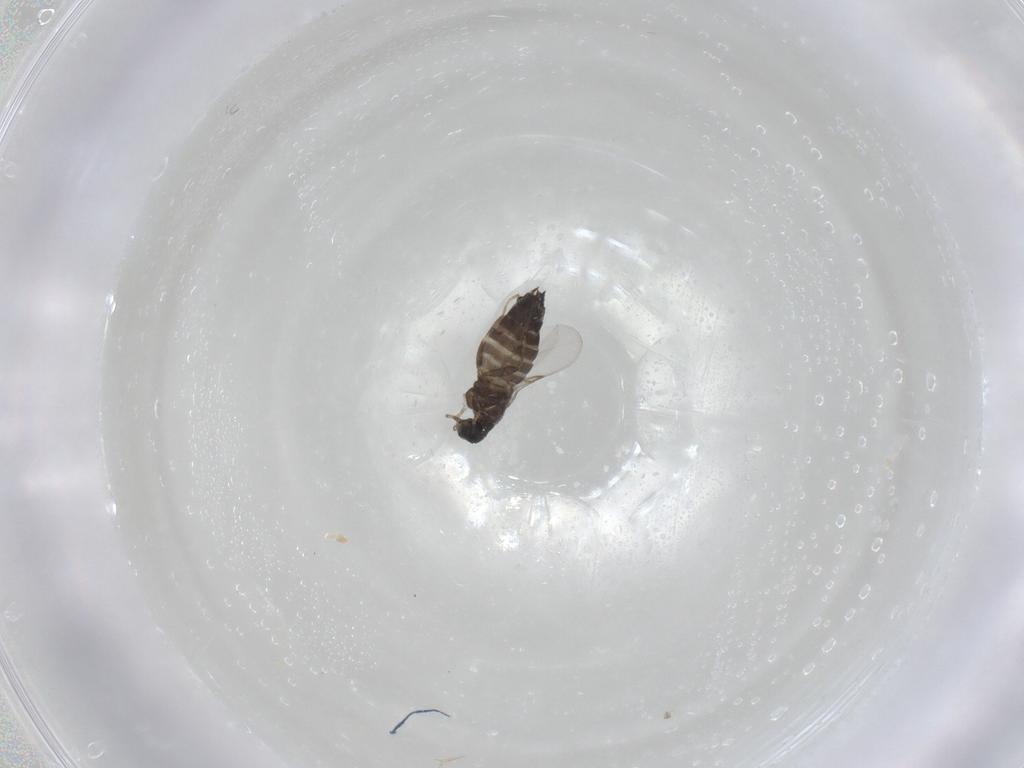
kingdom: Animalia
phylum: Arthropoda
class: Insecta
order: Diptera
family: Scatopsidae
